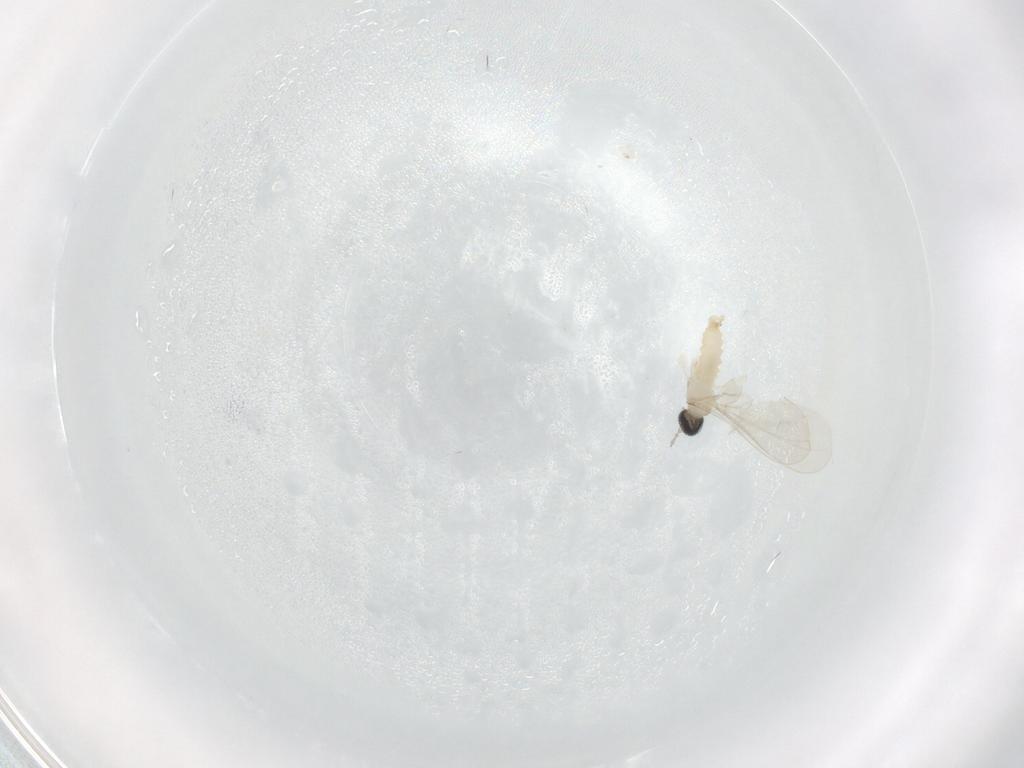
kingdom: Animalia
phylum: Arthropoda
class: Insecta
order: Diptera
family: Cecidomyiidae
